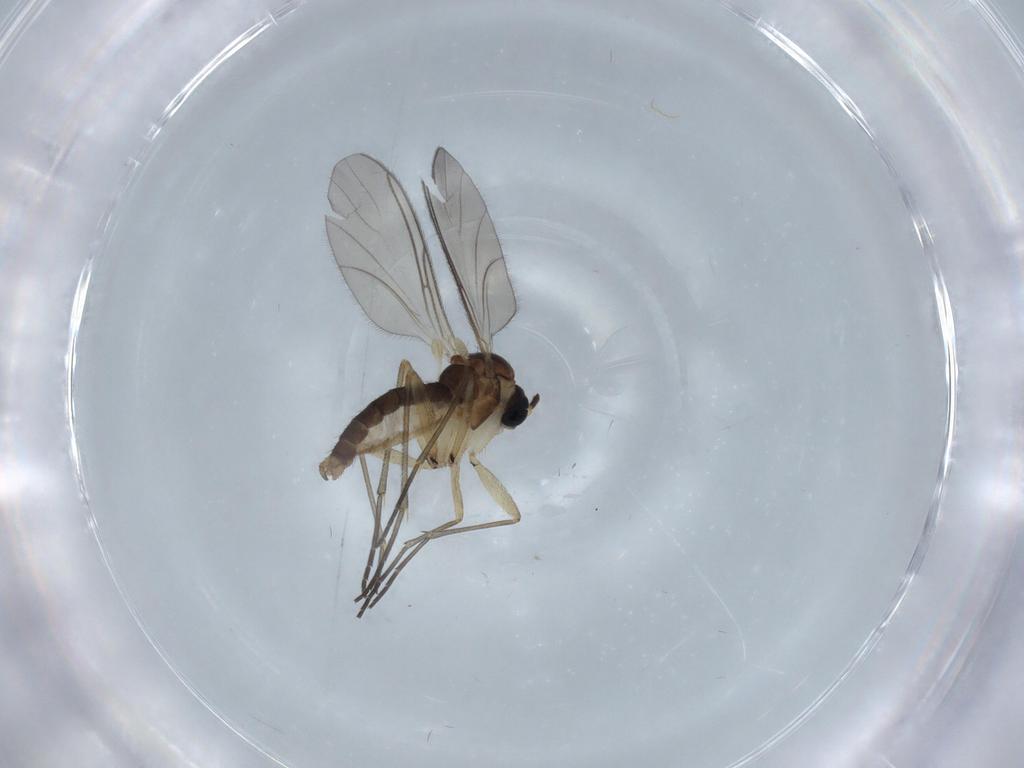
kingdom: Animalia
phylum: Arthropoda
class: Insecta
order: Diptera
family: Sciaridae
